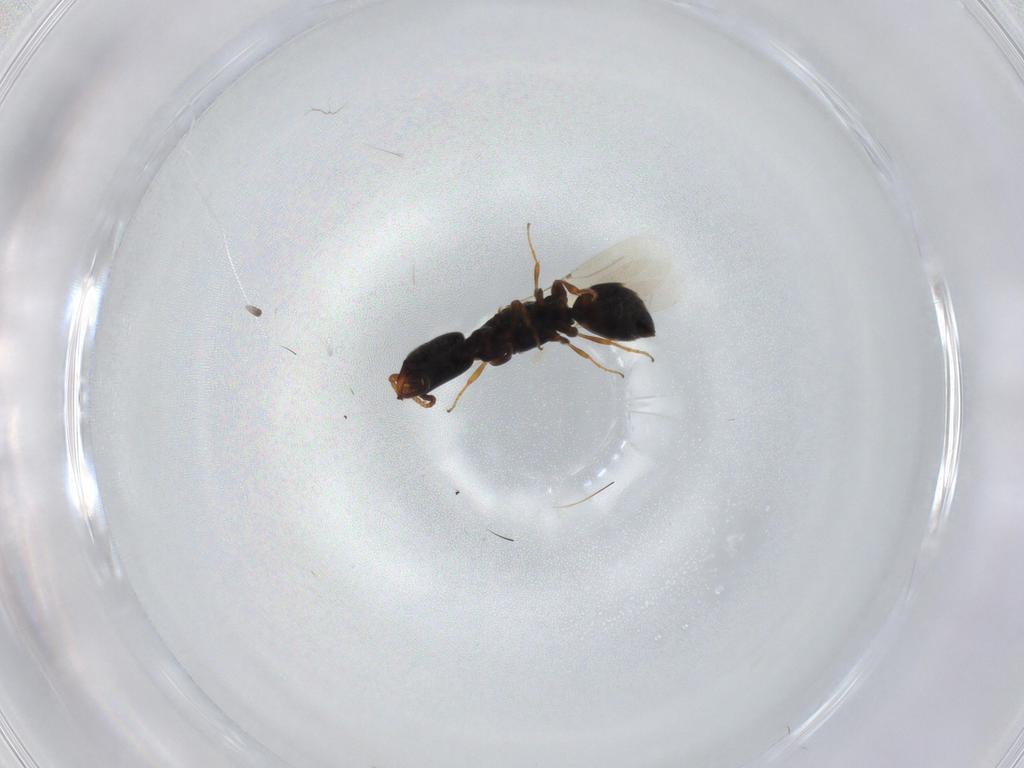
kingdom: Animalia
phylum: Arthropoda
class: Insecta
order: Hymenoptera
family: Bethylidae
